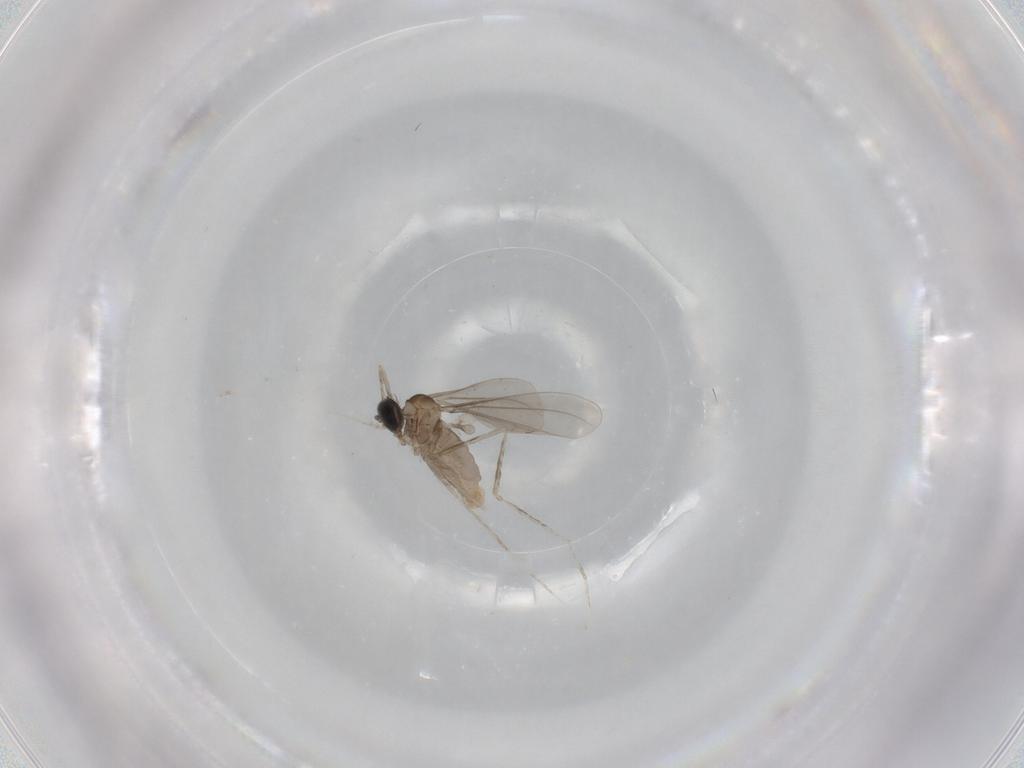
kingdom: Animalia
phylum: Arthropoda
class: Insecta
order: Diptera
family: Cecidomyiidae
